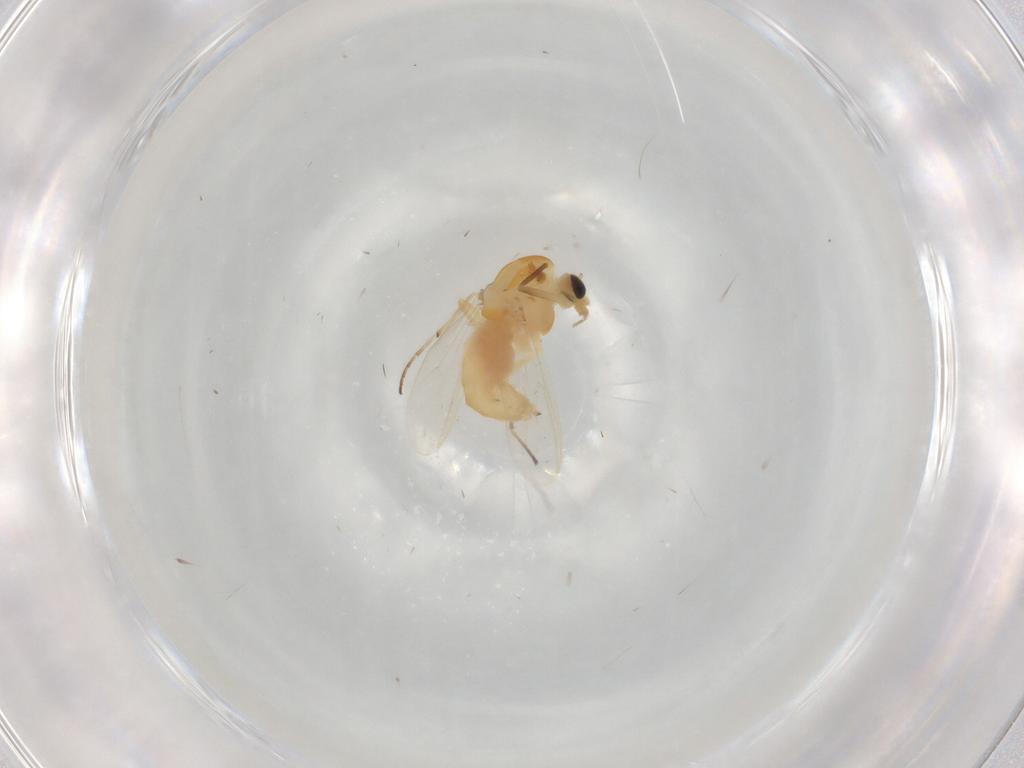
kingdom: Animalia
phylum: Arthropoda
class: Insecta
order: Diptera
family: Chironomidae
